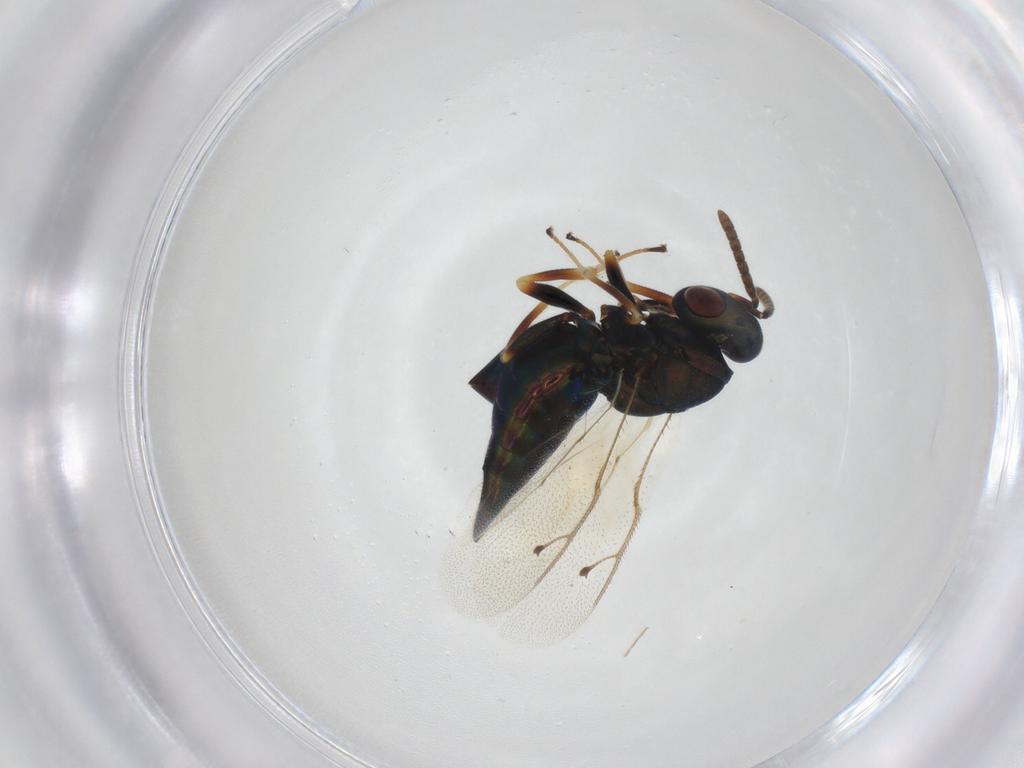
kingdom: Animalia
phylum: Arthropoda
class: Insecta
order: Hymenoptera
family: Pteromalidae
